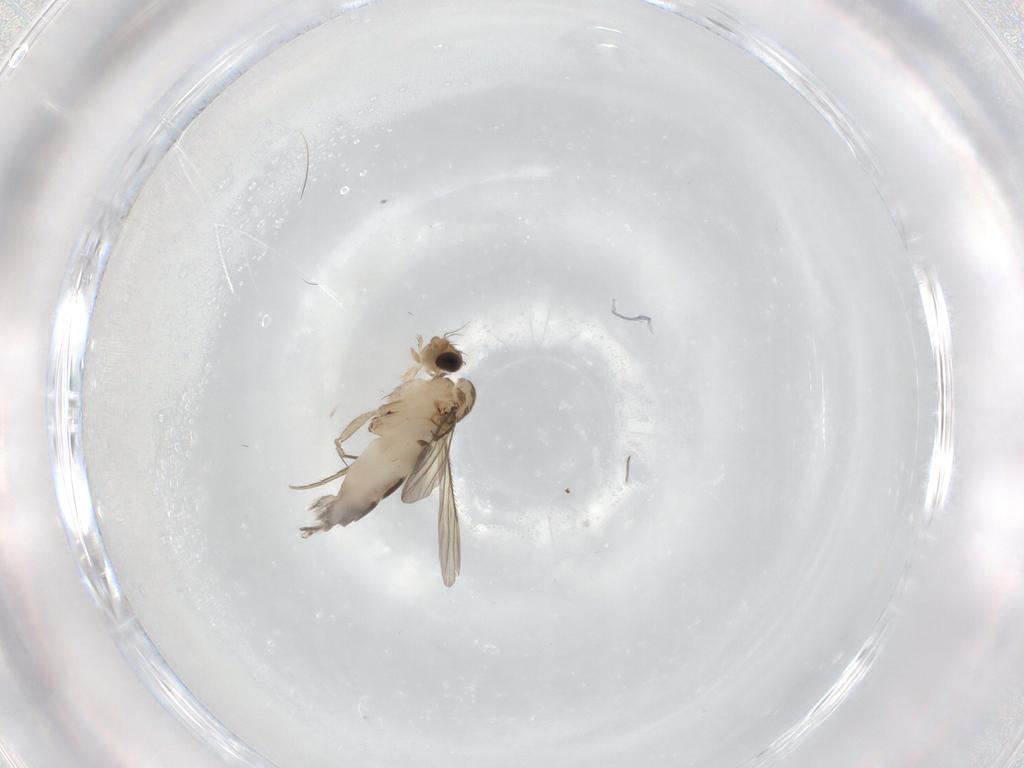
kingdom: Animalia
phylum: Arthropoda
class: Insecta
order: Diptera
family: Phoridae
